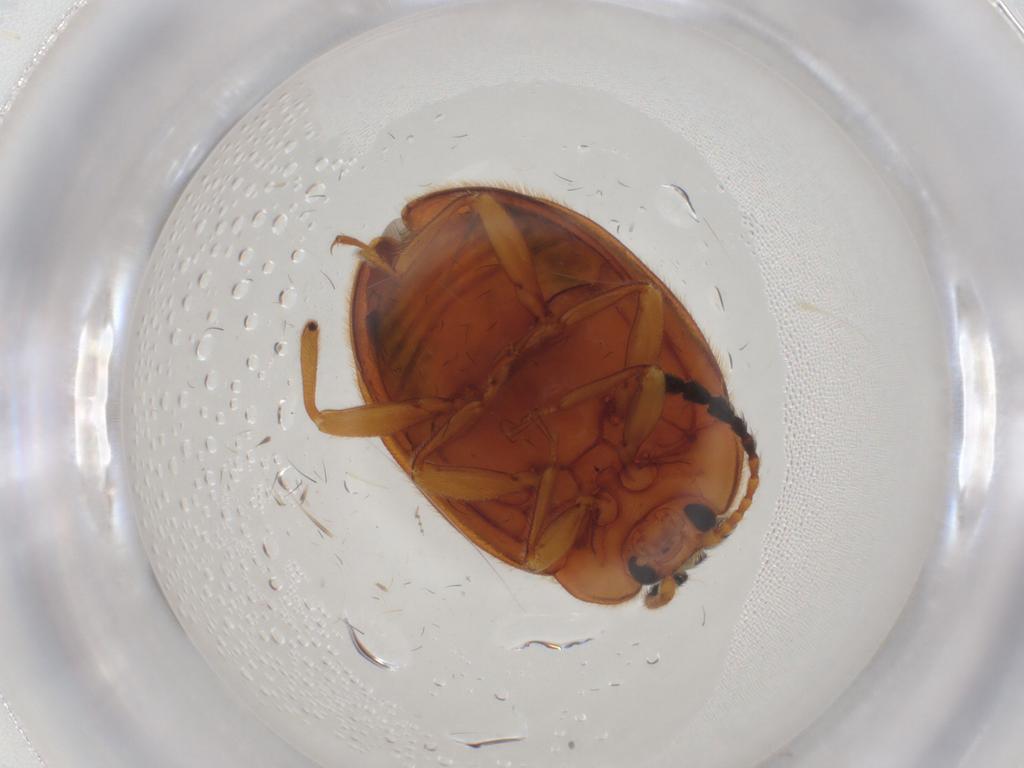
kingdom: Animalia
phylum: Arthropoda
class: Insecta
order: Coleoptera
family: Endomychidae
